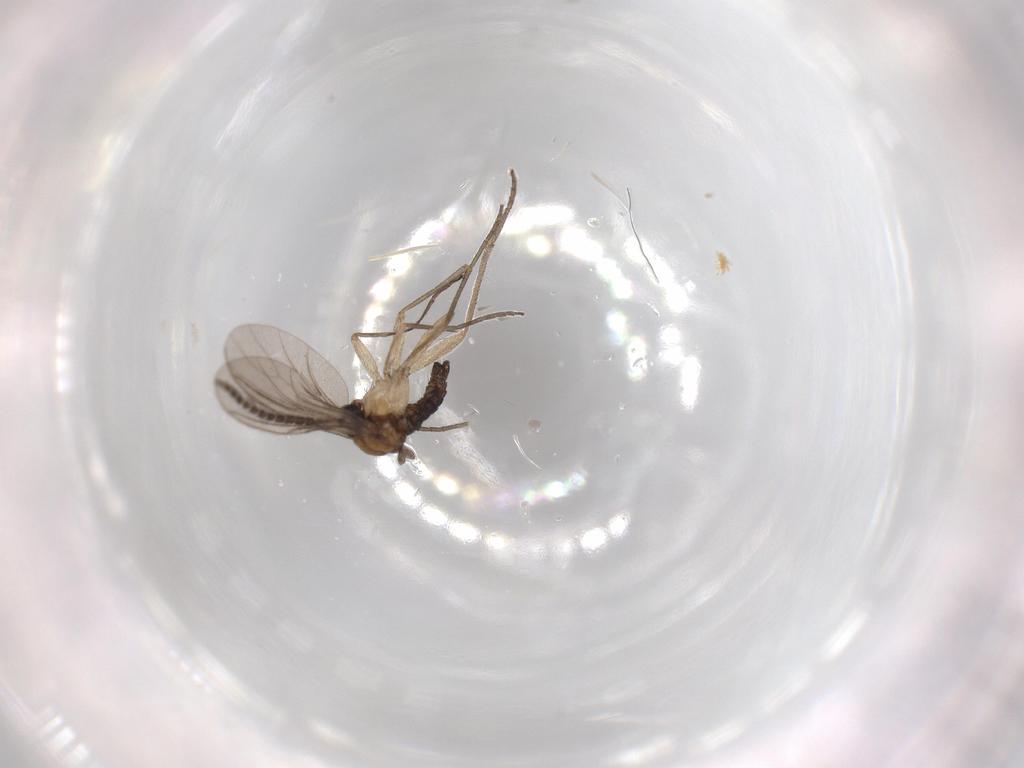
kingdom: Animalia
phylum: Arthropoda
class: Insecta
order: Diptera
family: Sciaridae
